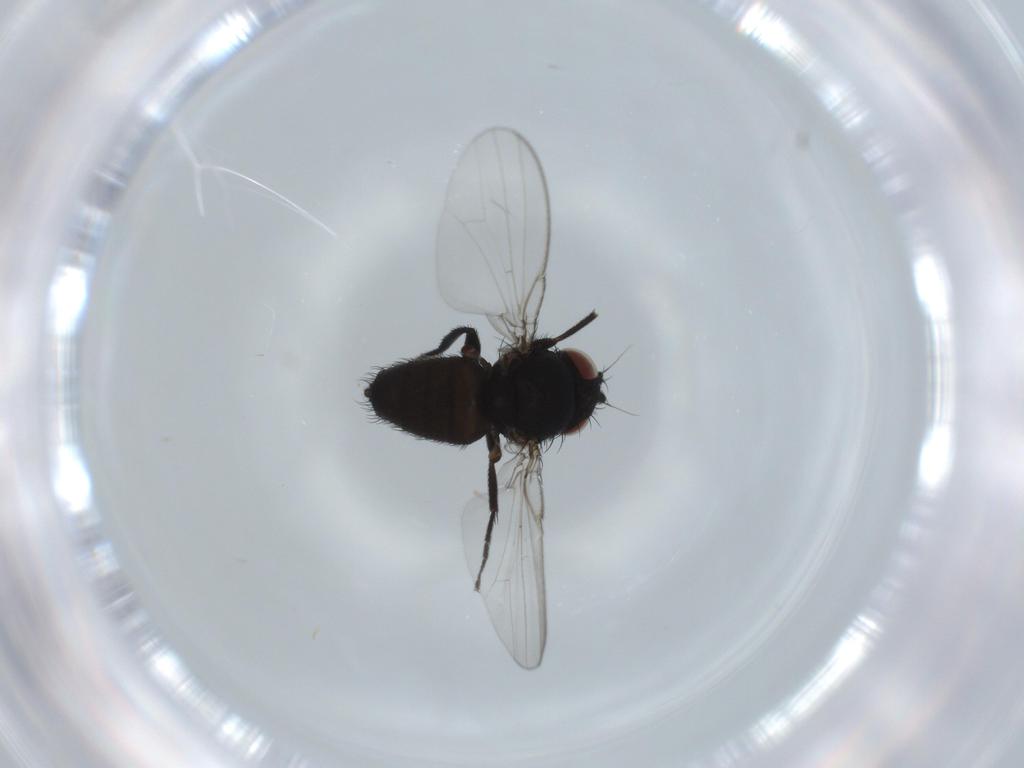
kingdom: Animalia
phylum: Arthropoda
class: Insecta
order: Diptera
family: Milichiidae
